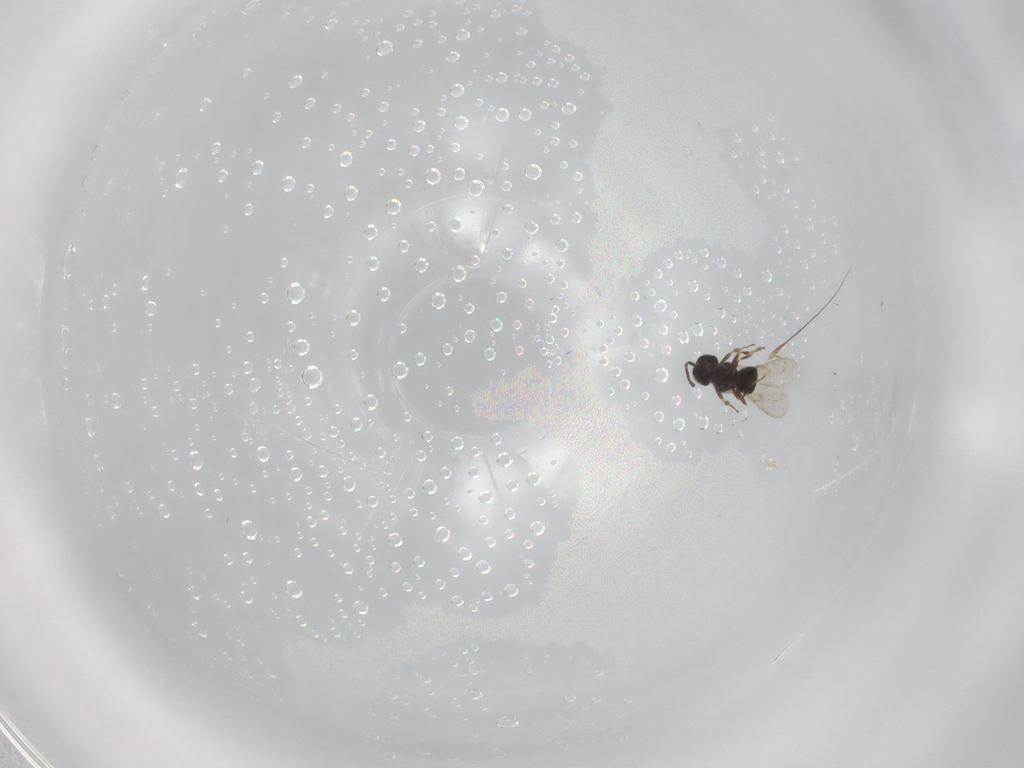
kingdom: Animalia
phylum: Arthropoda
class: Insecta
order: Hymenoptera
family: Scelionidae
